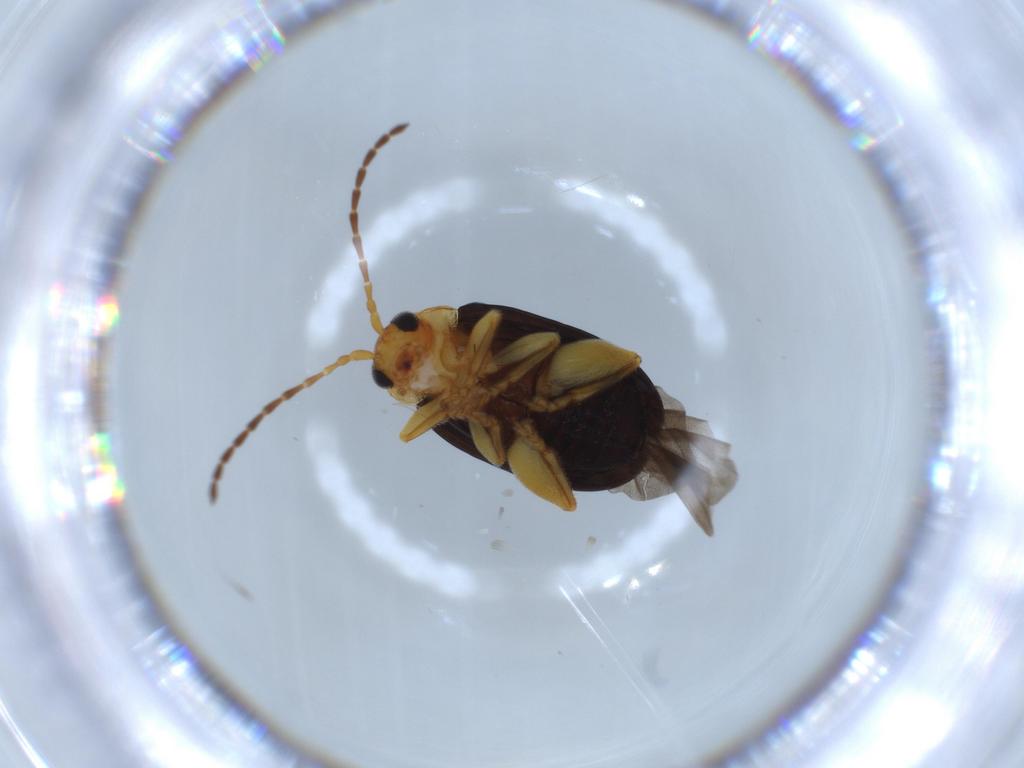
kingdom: Animalia
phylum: Arthropoda
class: Insecta
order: Coleoptera
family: Chrysomelidae
